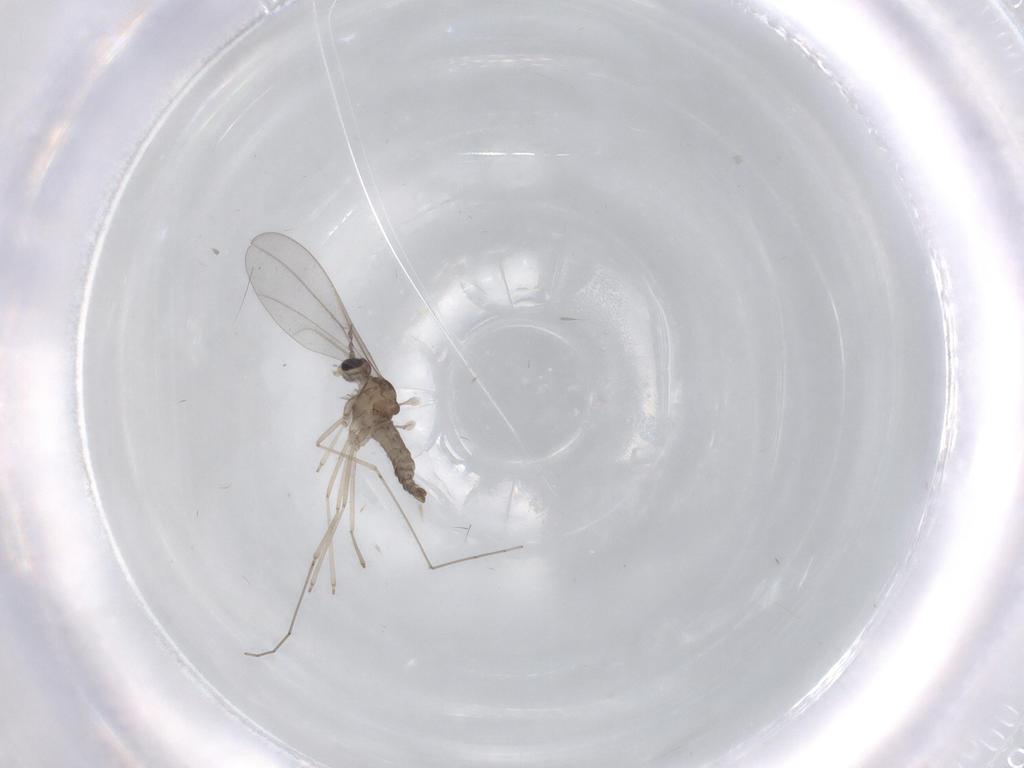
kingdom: Animalia
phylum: Arthropoda
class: Insecta
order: Diptera
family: Cecidomyiidae
